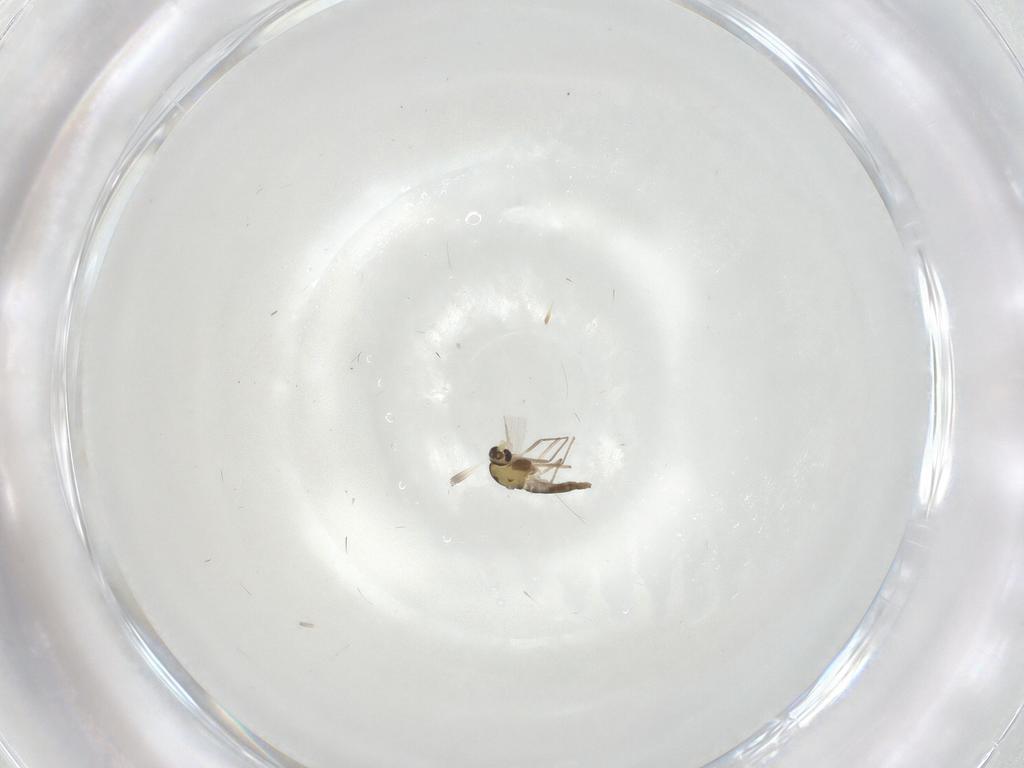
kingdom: Animalia
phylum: Arthropoda
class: Insecta
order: Diptera
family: Chironomidae
